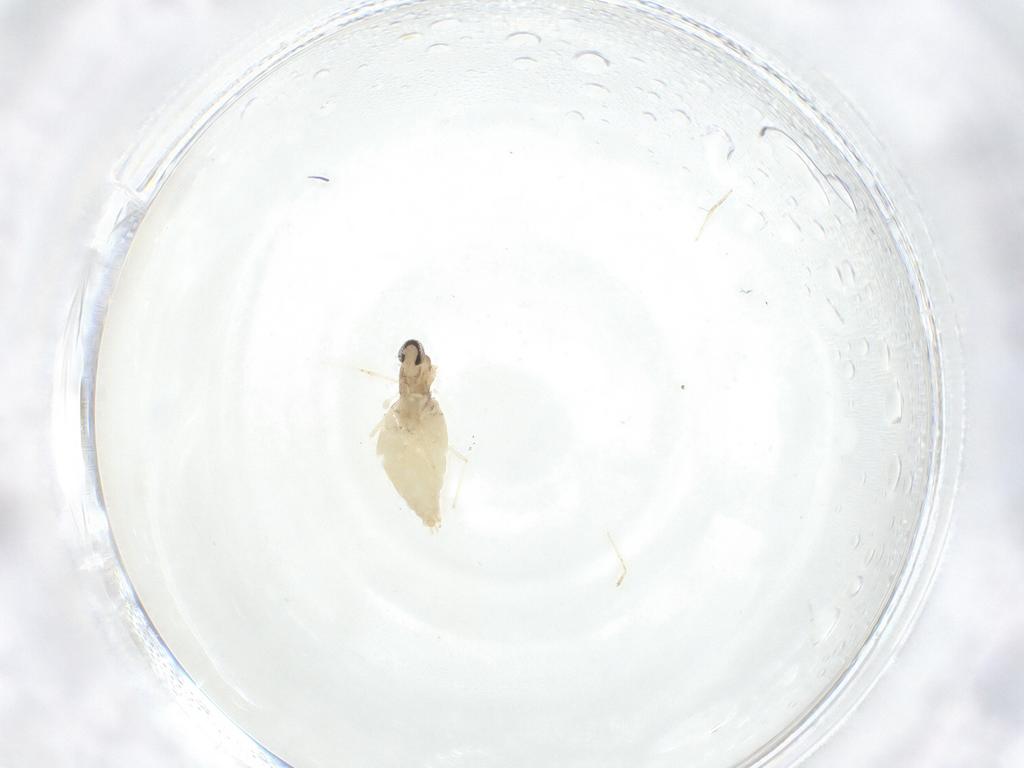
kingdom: Animalia
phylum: Arthropoda
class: Insecta
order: Diptera
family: Cecidomyiidae
